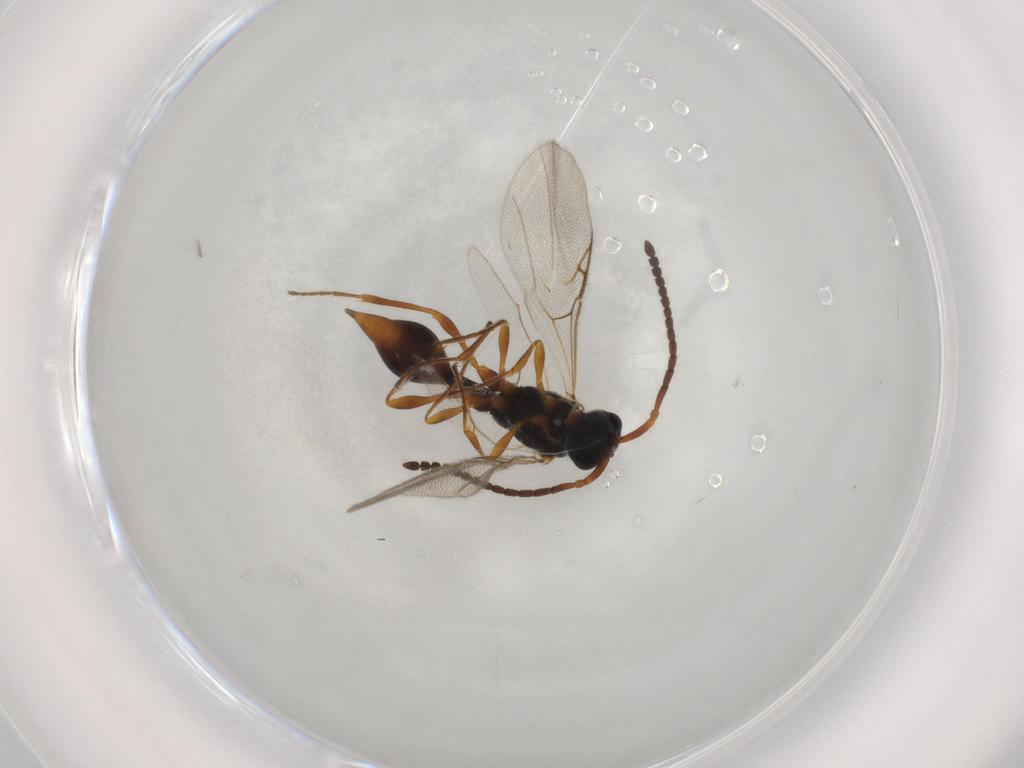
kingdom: Animalia
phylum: Arthropoda
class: Insecta
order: Hymenoptera
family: Diapriidae
